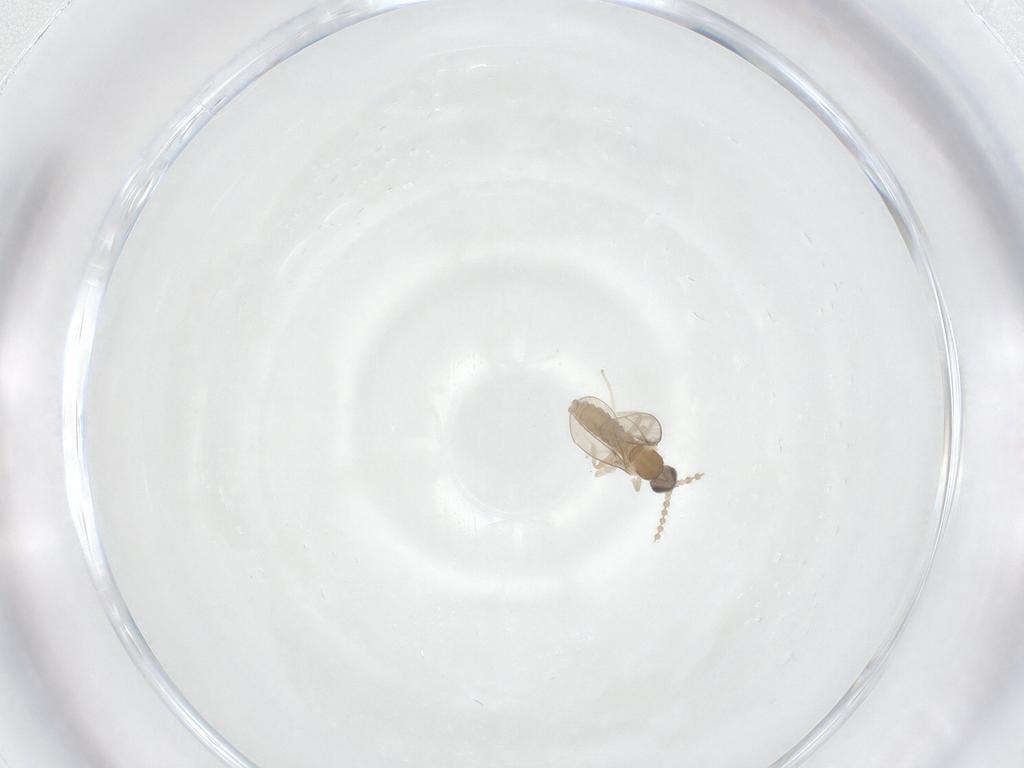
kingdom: Animalia
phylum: Arthropoda
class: Insecta
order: Diptera
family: Cecidomyiidae
